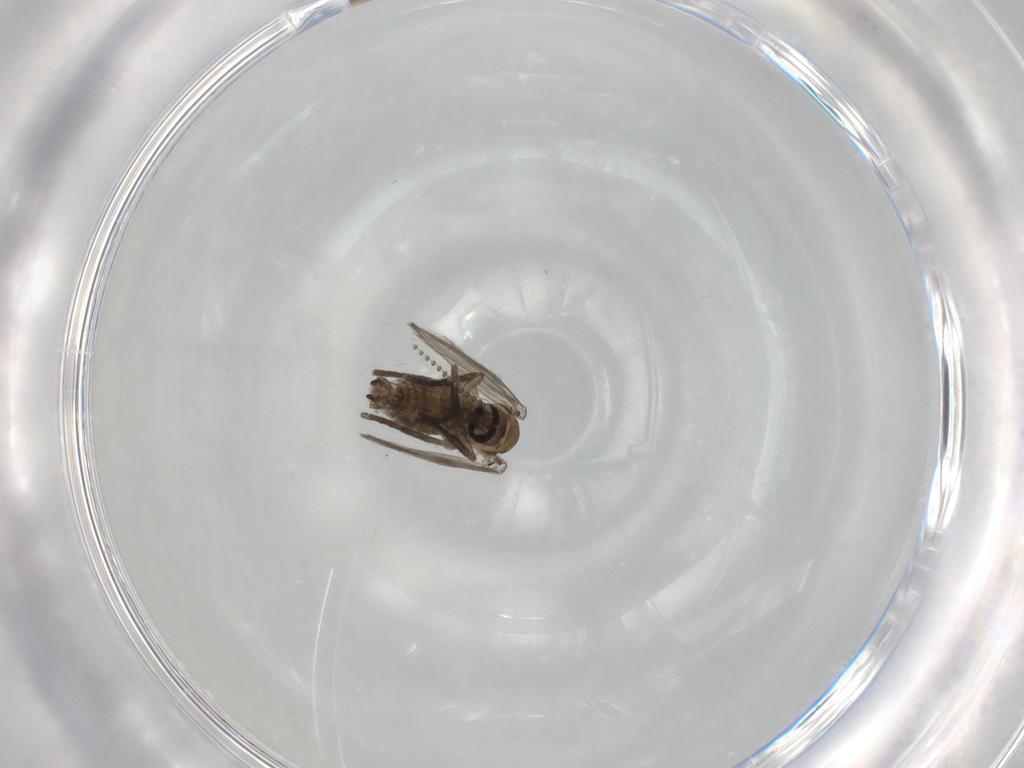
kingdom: Animalia
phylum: Arthropoda
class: Insecta
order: Diptera
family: Psychodidae
